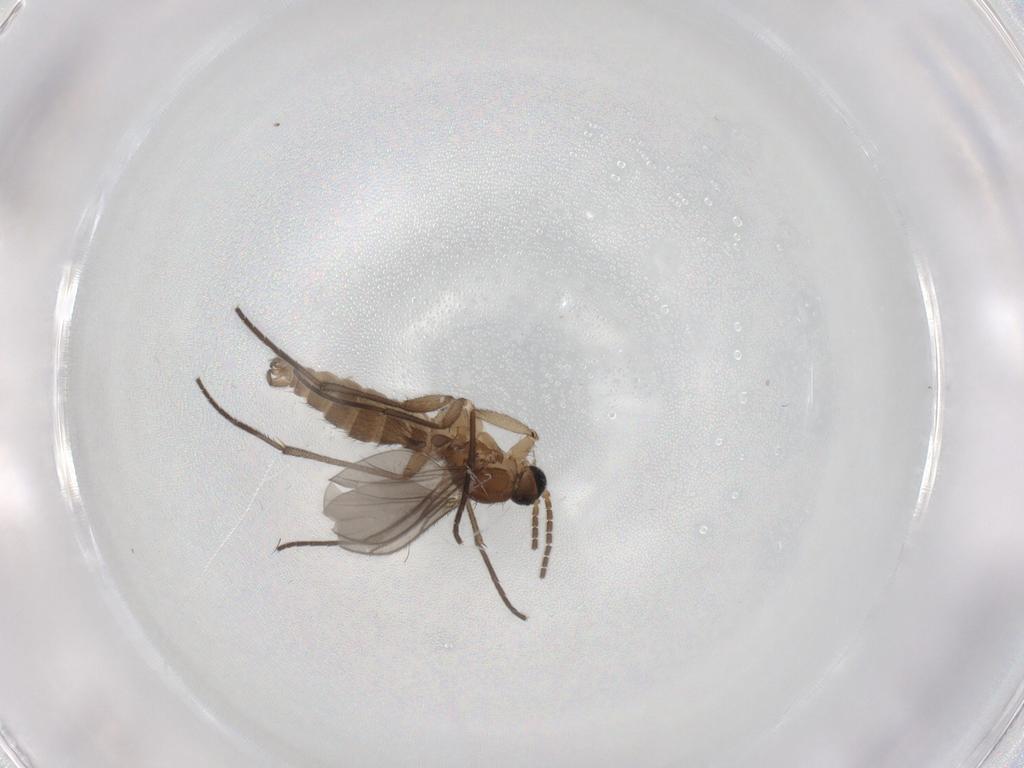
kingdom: Animalia
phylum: Arthropoda
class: Insecta
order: Diptera
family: Sciaridae
